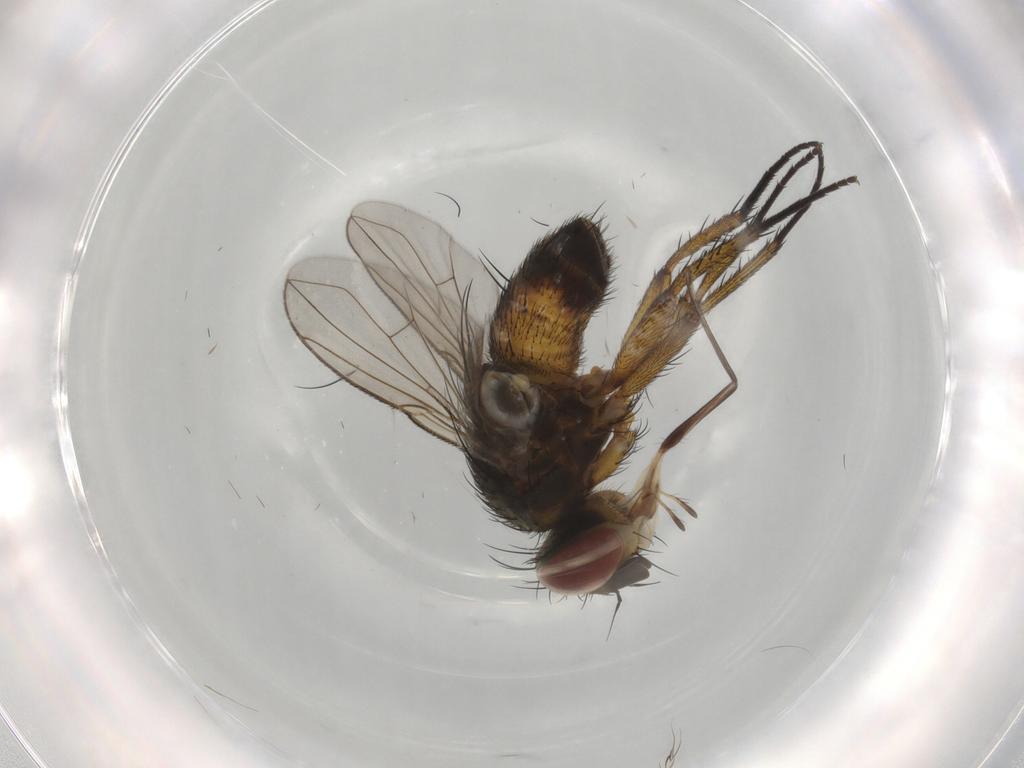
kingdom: Animalia
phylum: Arthropoda
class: Insecta
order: Diptera
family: Tachinidae
